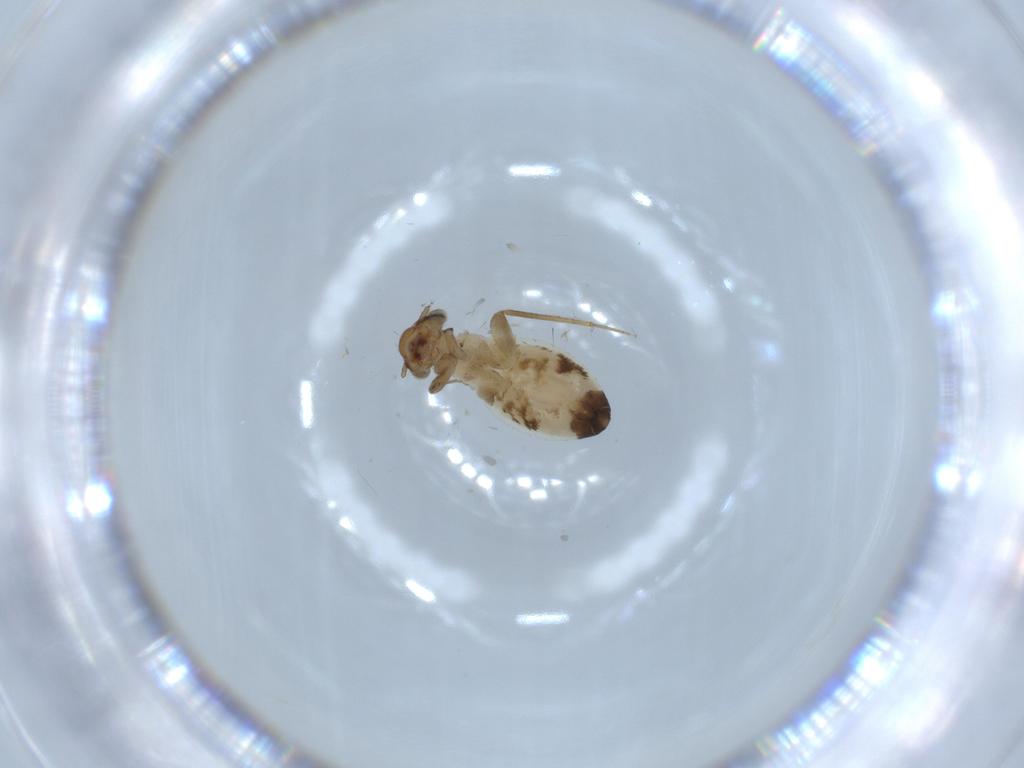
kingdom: Animalia
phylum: Arthropoda
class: Insecta
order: Psocodea
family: Lepidopsocidae
